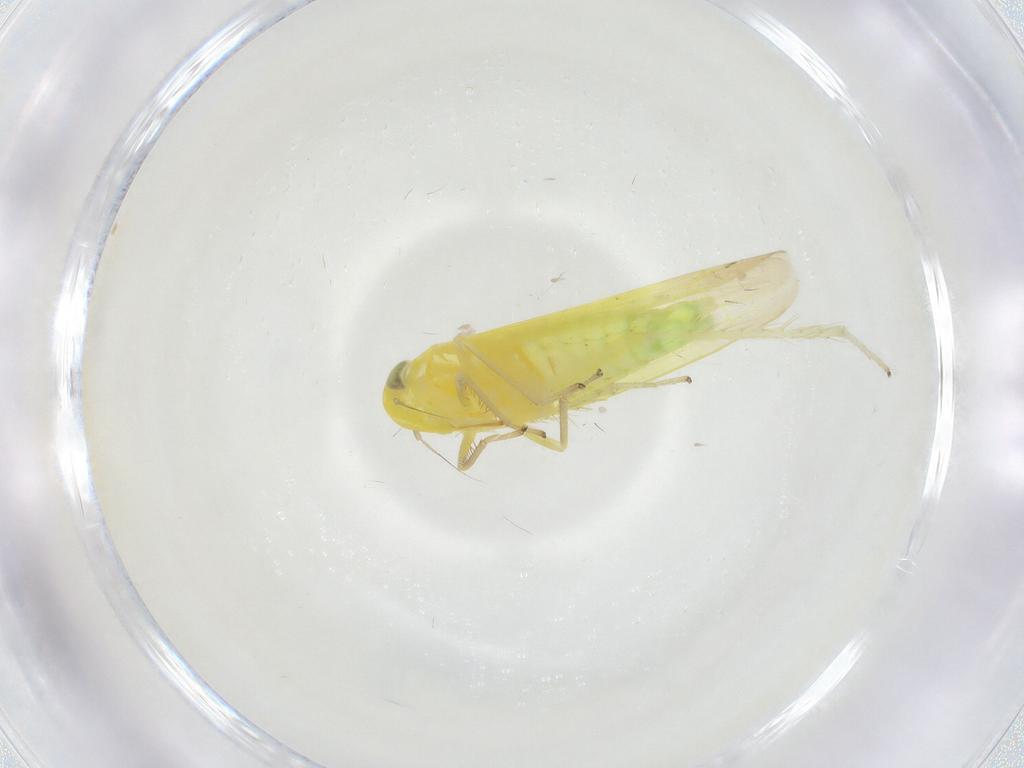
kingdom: Animalia
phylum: Arthropoda
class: Insecta
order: Hemiptera
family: Cicadellidae
